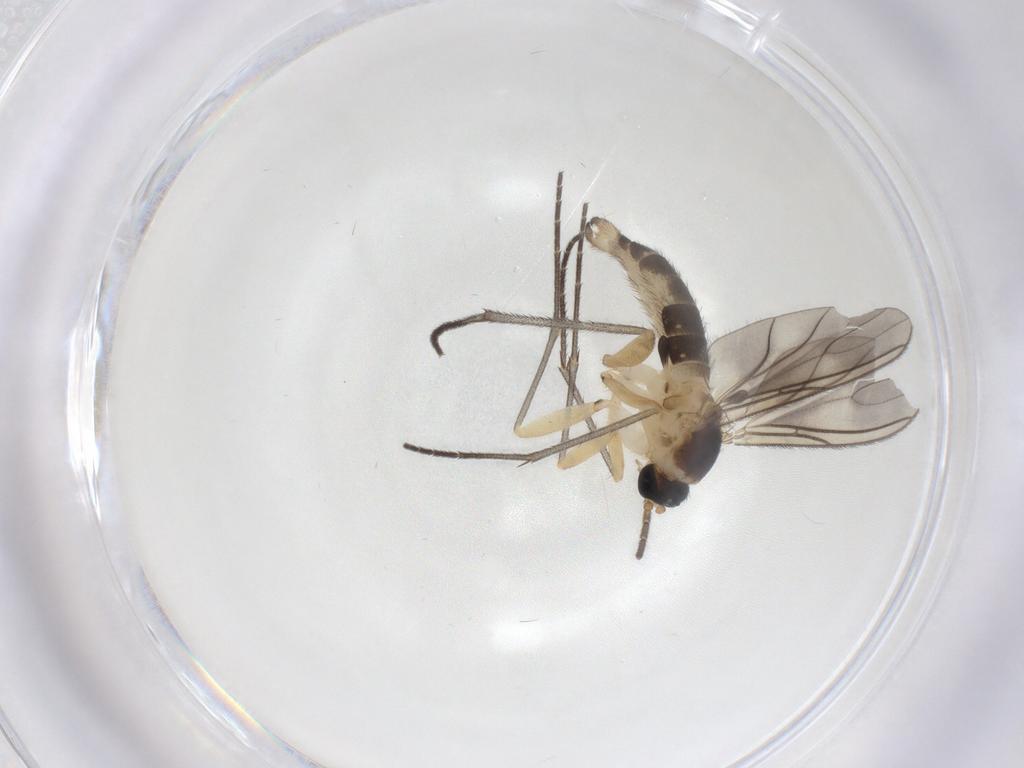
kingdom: Animalia
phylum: Arthropoda
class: Insecta
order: Diptera
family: Sciaridae
